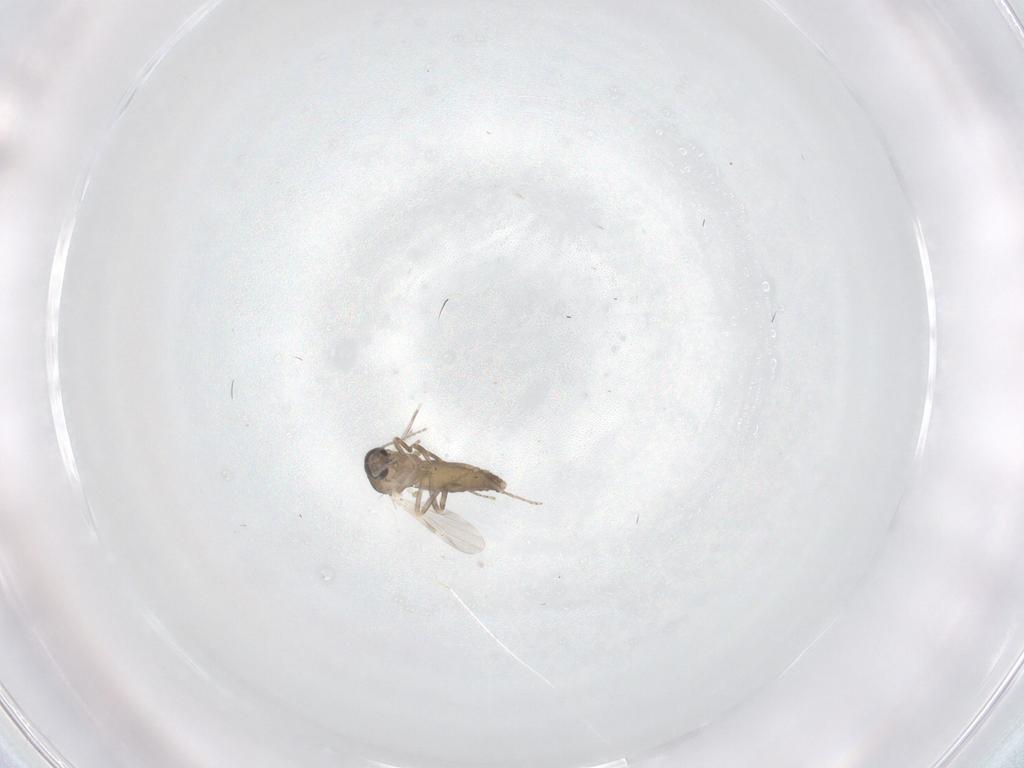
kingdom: Animalia
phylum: Arthropoda
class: Insecta
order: Diptera
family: Ceratopogonidae
